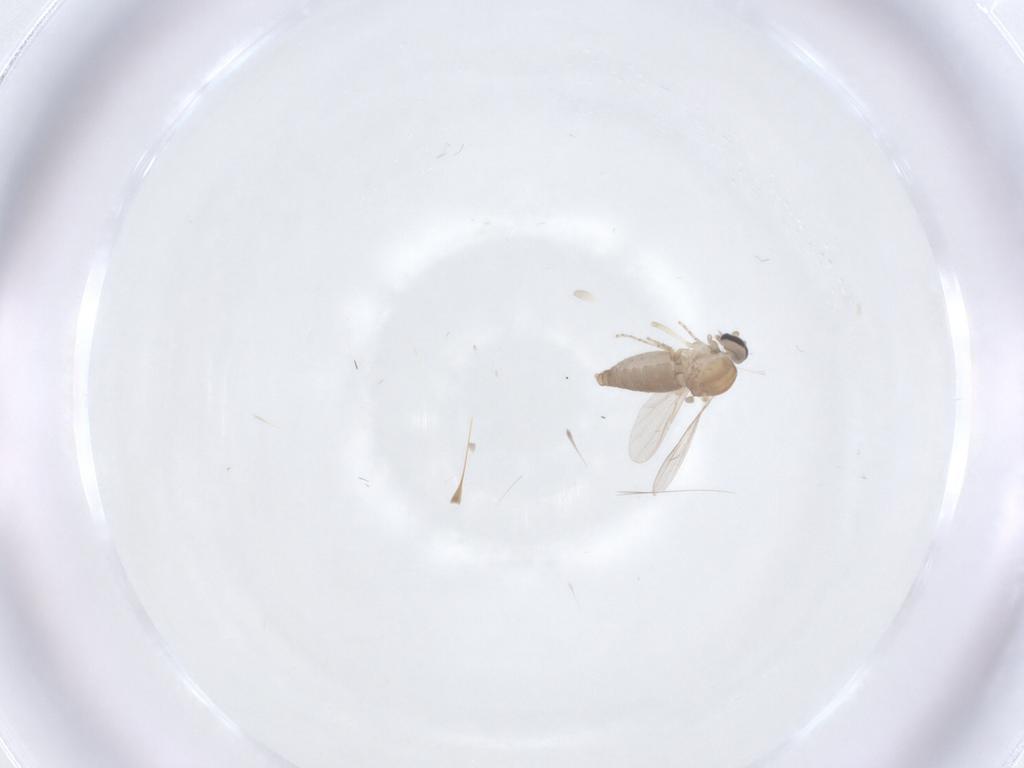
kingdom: Animalia
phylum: Arthropoda
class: Insecta
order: Diptera
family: Ceratopogonidae
